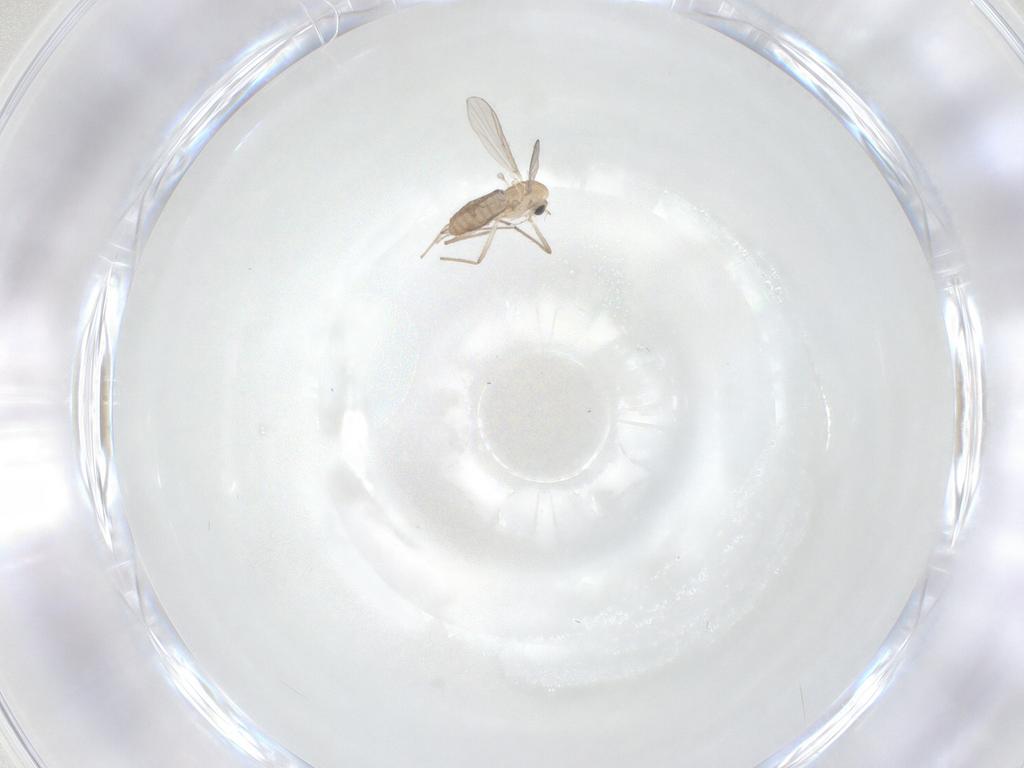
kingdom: Animalia
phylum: Arthropoda
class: Insecta
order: Diptera
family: Chironomidae
